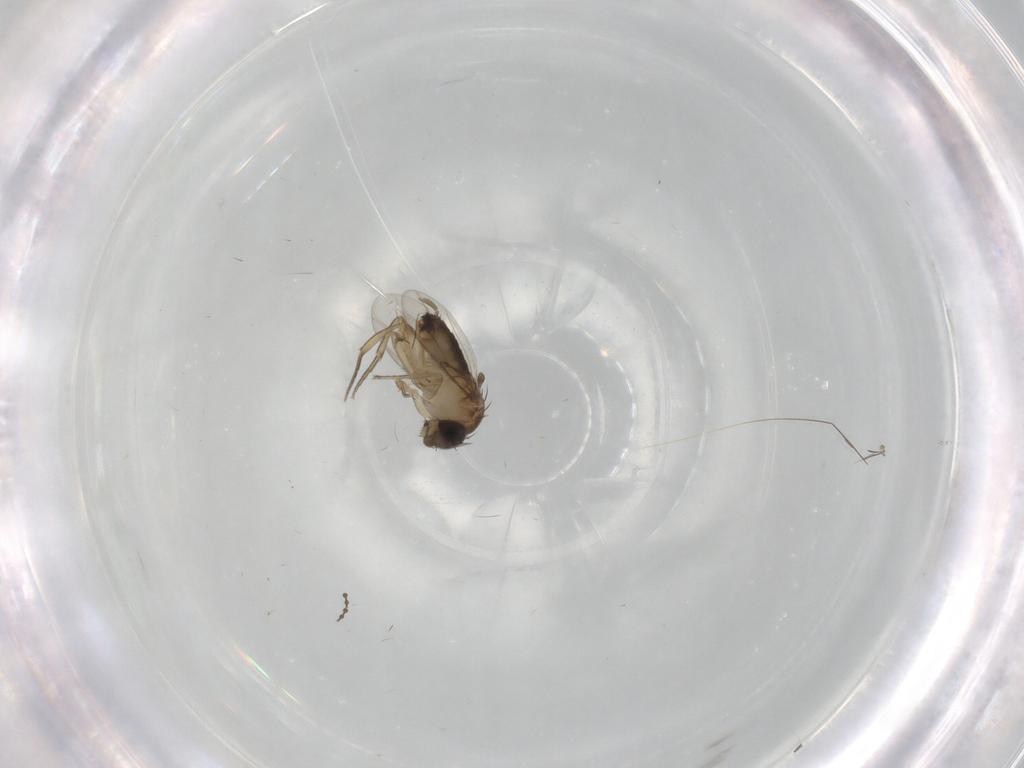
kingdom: Animalia
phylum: Arthropoda
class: Insecta
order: Diptera
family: Phoridae
